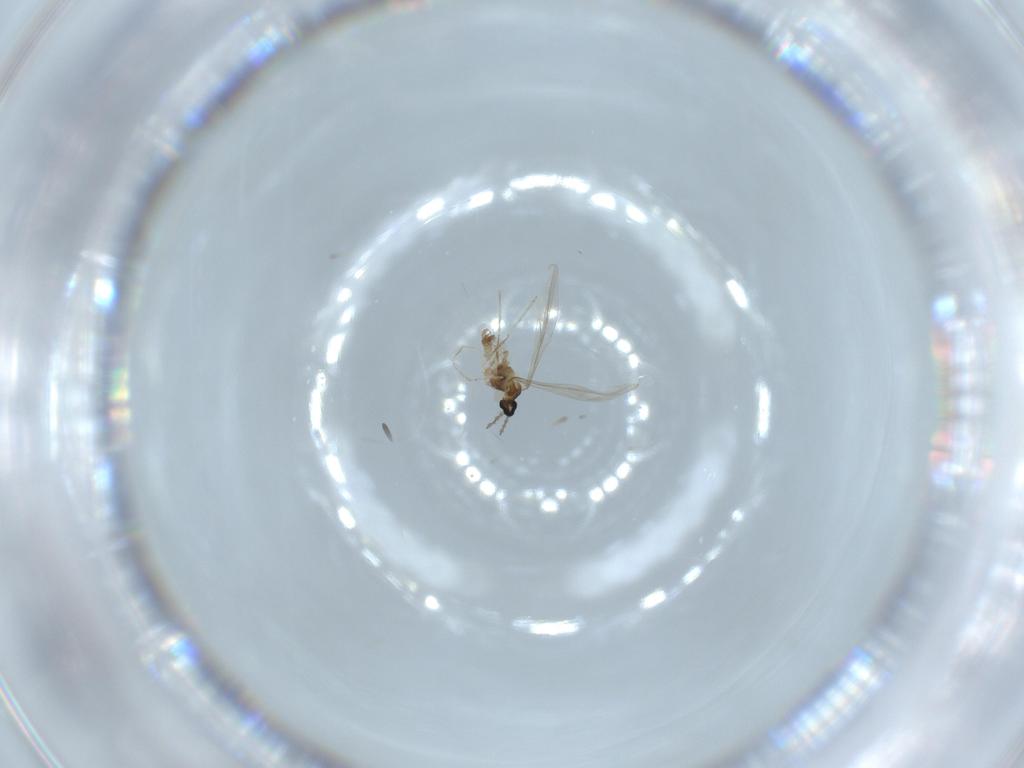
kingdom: Animalia
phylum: Arthropoda
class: Insecta
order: Diptera
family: Cecidomyiidae
